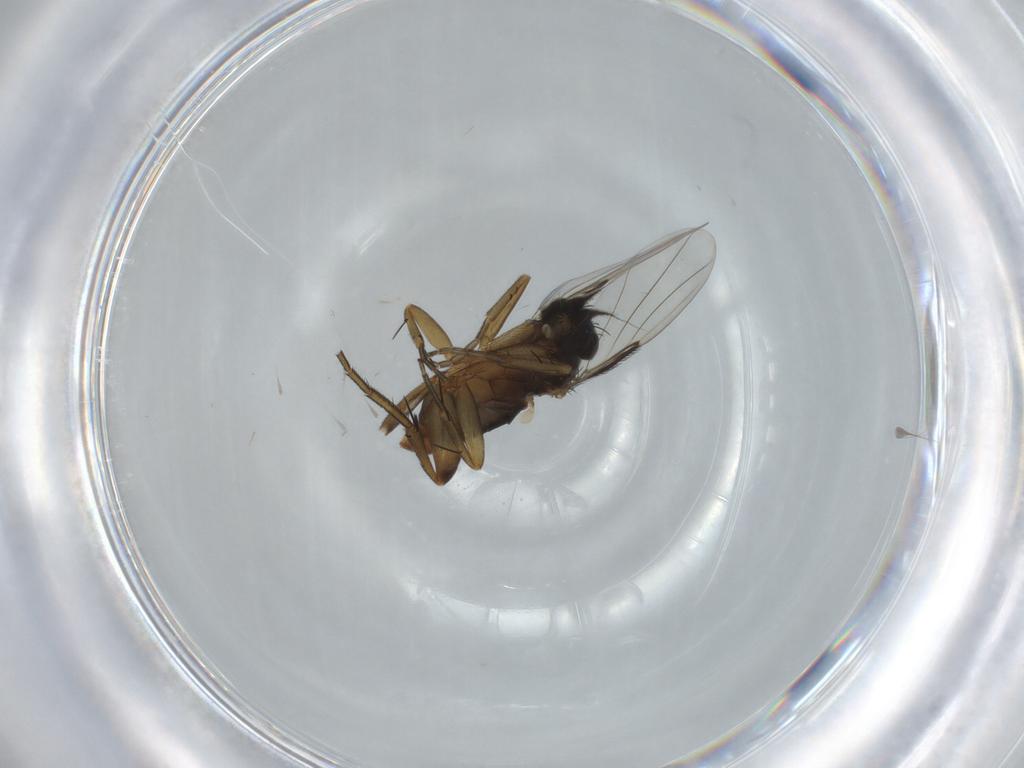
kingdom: Animalia
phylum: Arthropoda
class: Insecta
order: Diptera
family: Phoridae
